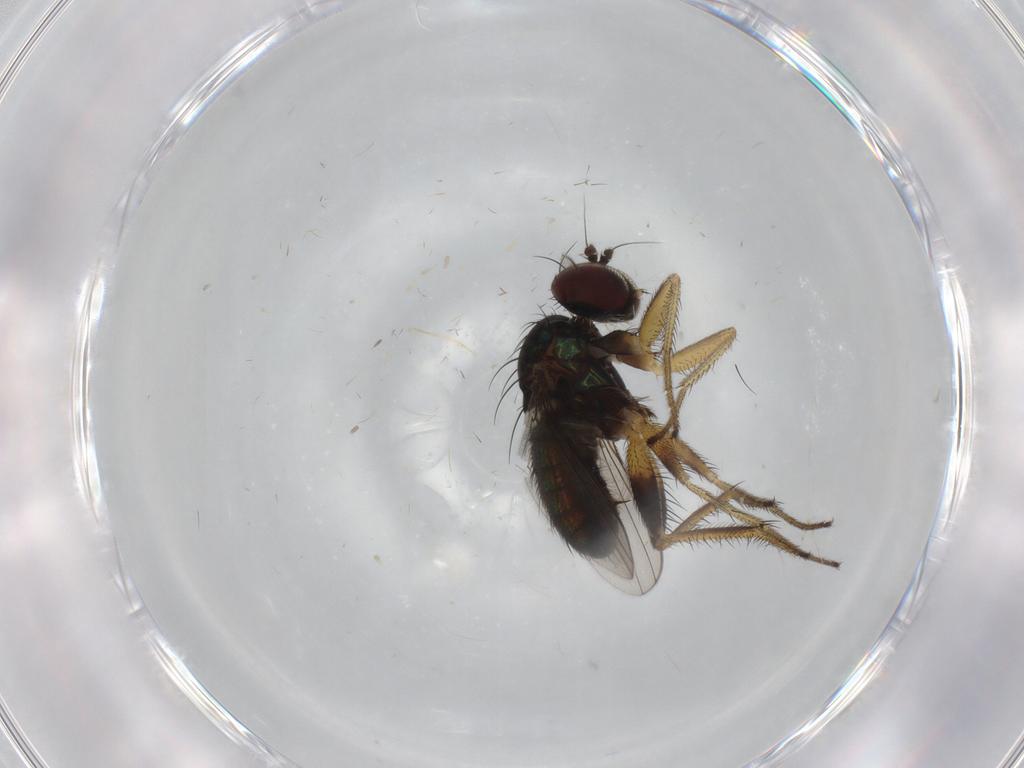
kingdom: Animalia
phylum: Arthropoda
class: Insecta
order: Diptera
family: Dolichopodidae
